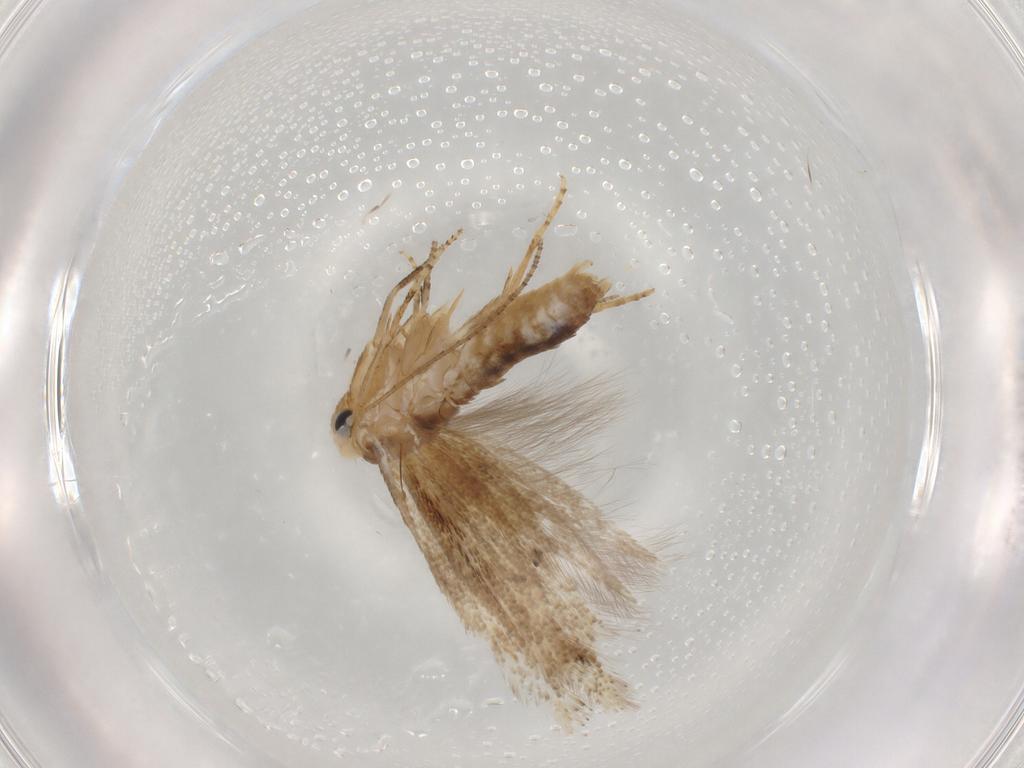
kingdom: Animalia
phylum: Arthropoda
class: Insecta
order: Lepidoptera
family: Bucculatricidae
